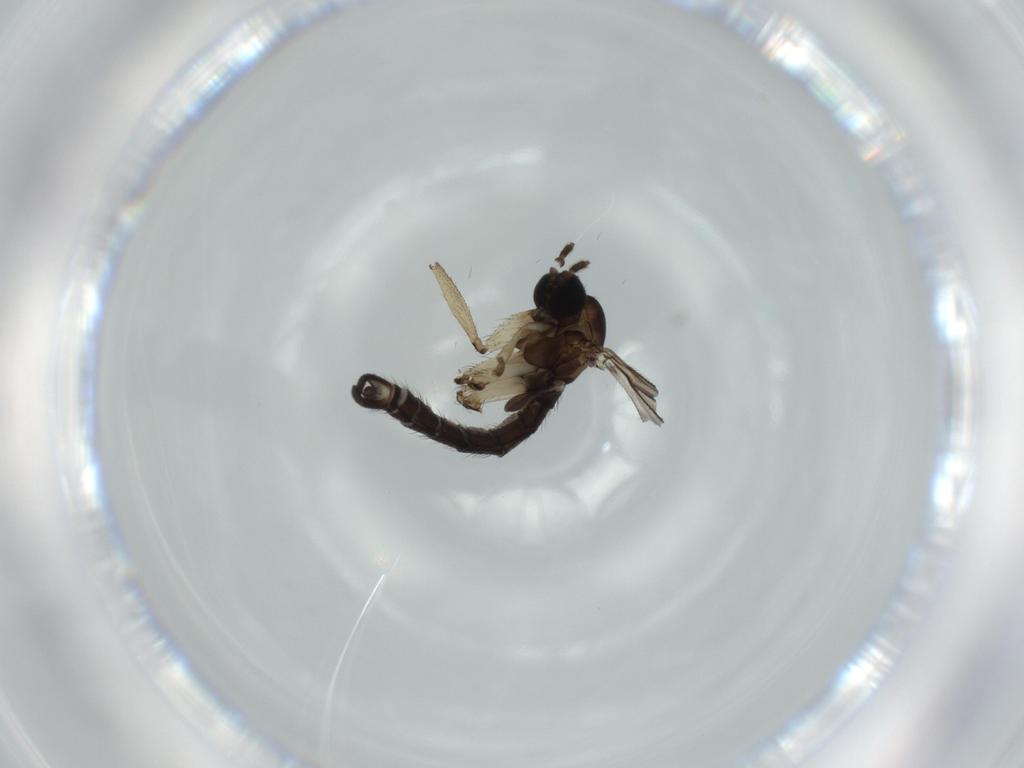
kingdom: Animalia
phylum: Arthropoda
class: Insecta
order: Diptera
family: Sciaridae
